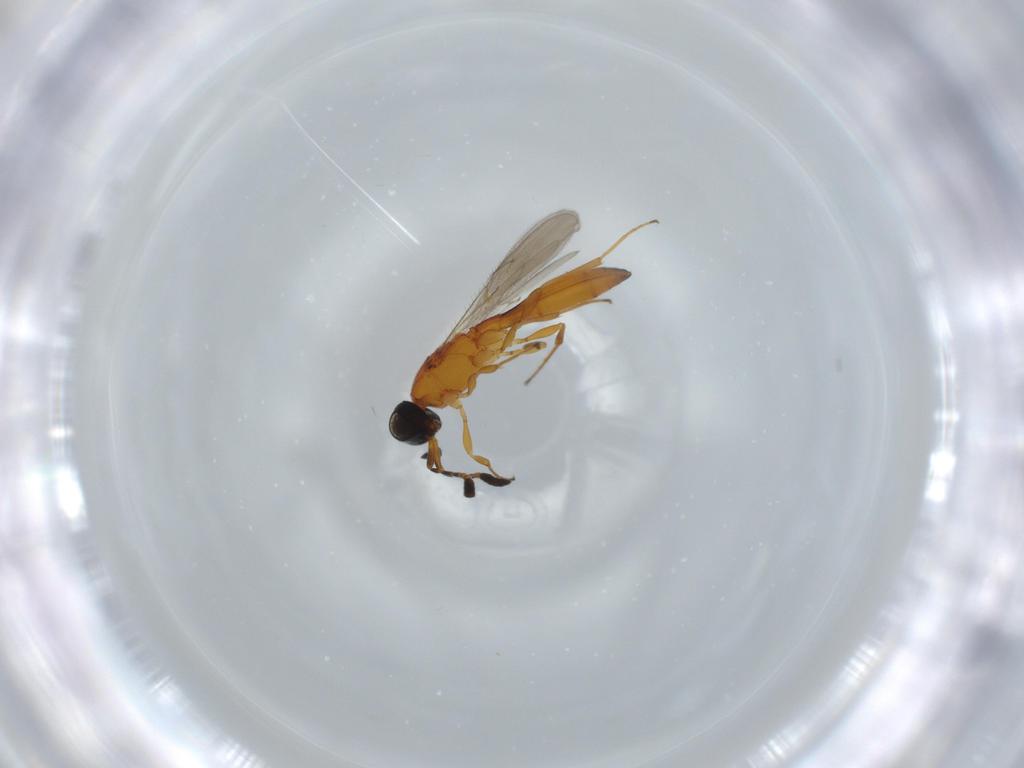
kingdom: Animalia
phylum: Arthropoda
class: Insecta
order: Hymenoptera
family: Scelionidae
